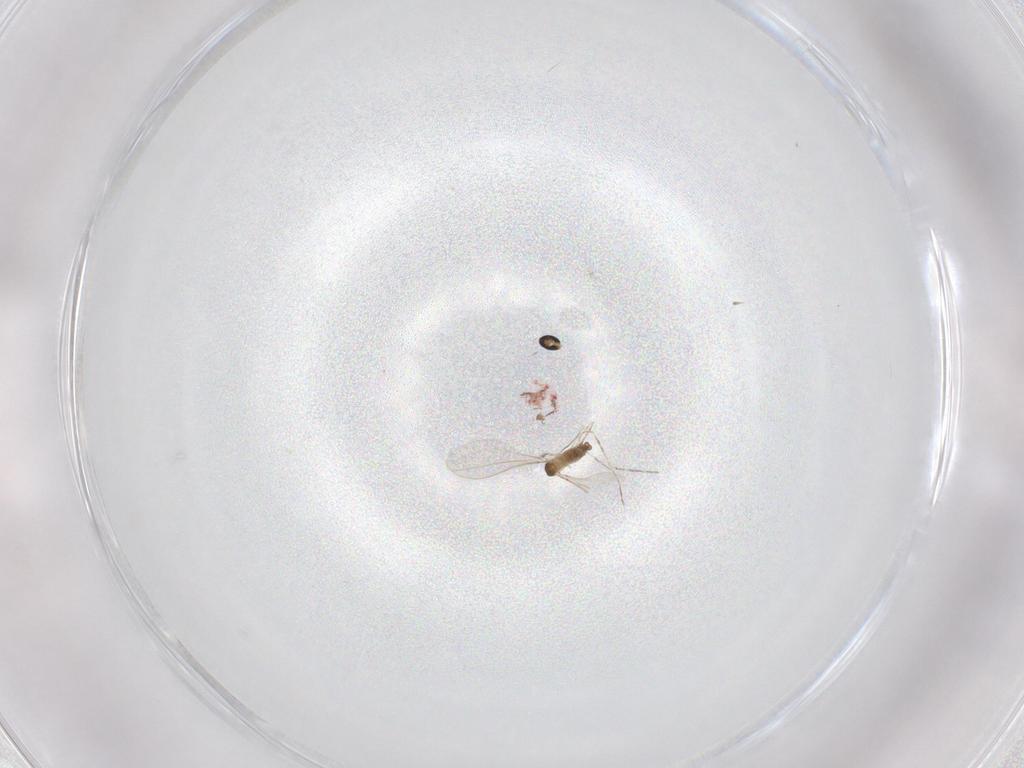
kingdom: Animalia
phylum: Arthropoda
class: Insecta
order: Diptera
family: Cecidomyiidae
